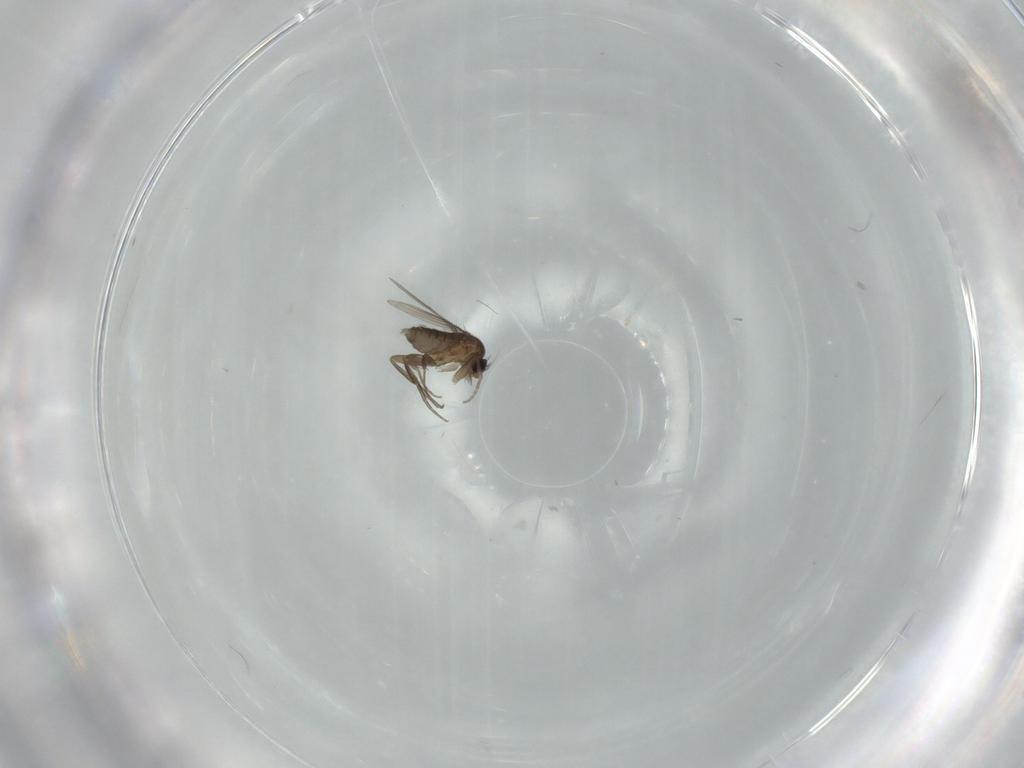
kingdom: Animalia
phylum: Arthropoda
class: Insecta
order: Diptera
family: Phoridae
